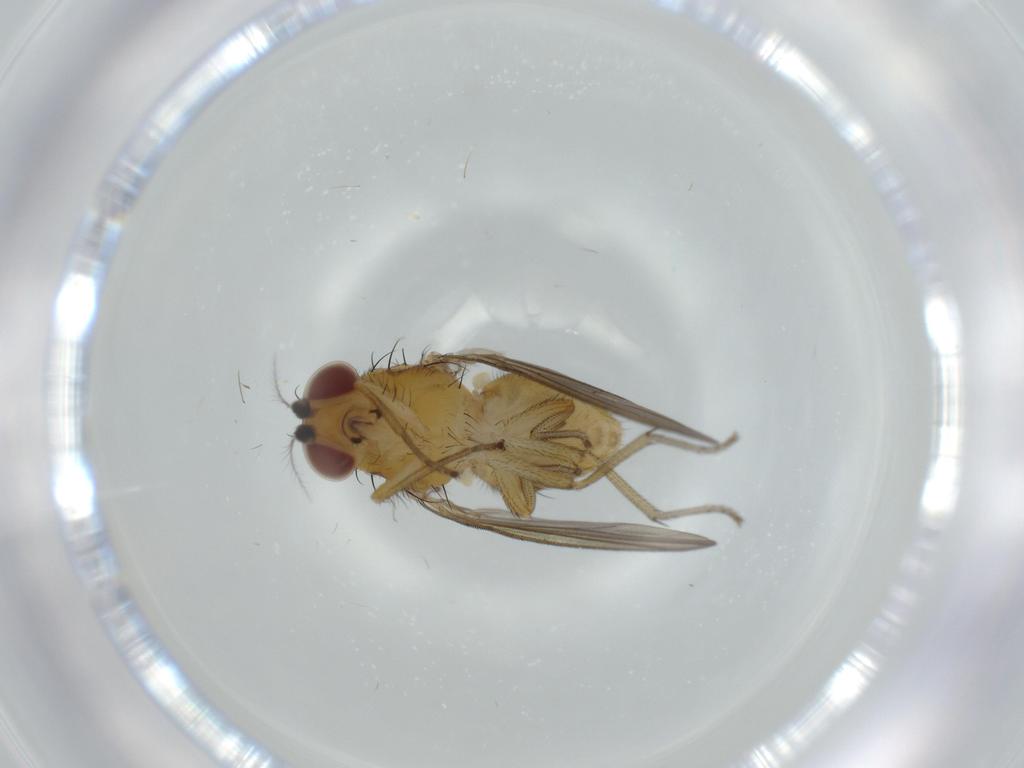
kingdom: Animalia
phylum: Arthropoda
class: Insecta
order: Diptera
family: Lauxaniidae
